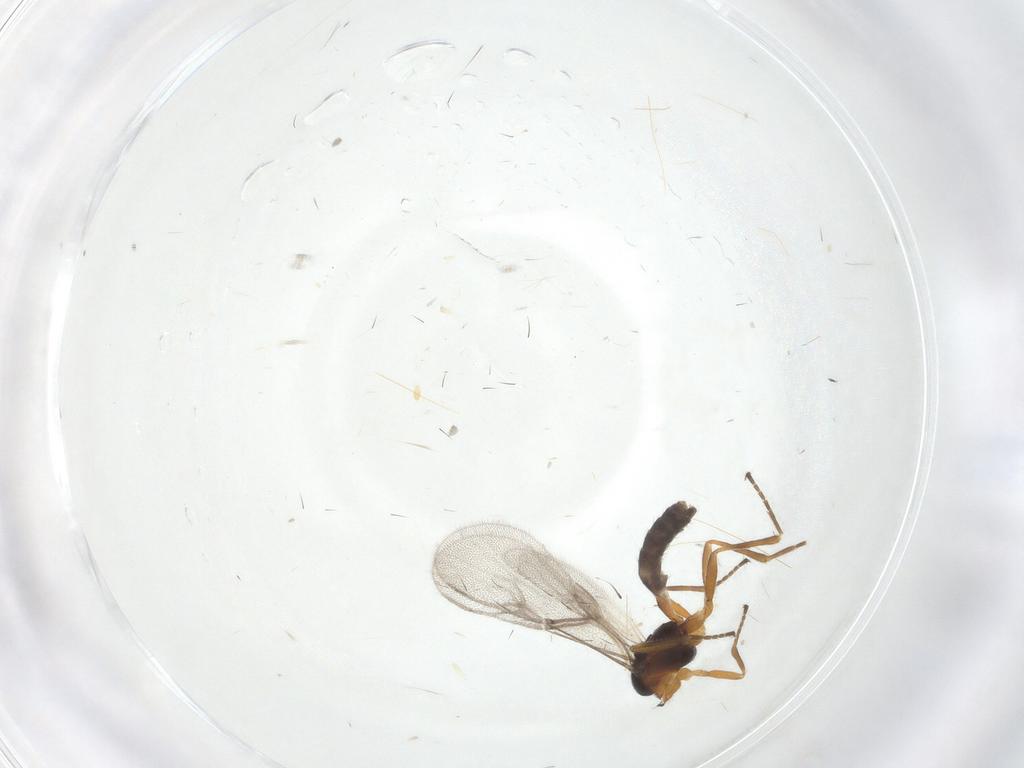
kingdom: Animalia
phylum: Arthropoda
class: Insecta
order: Hymenoptera
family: Braconidae
